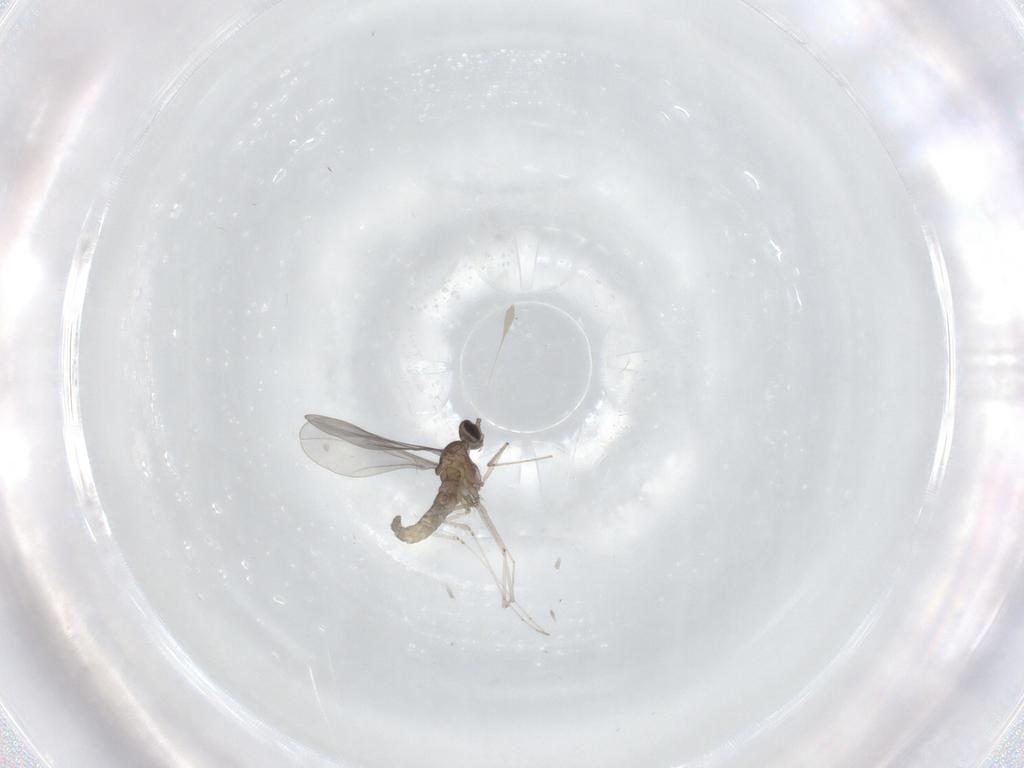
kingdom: Animalia
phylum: Arthropoda
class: Insecta
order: Diptera
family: Cecidomyiidae
